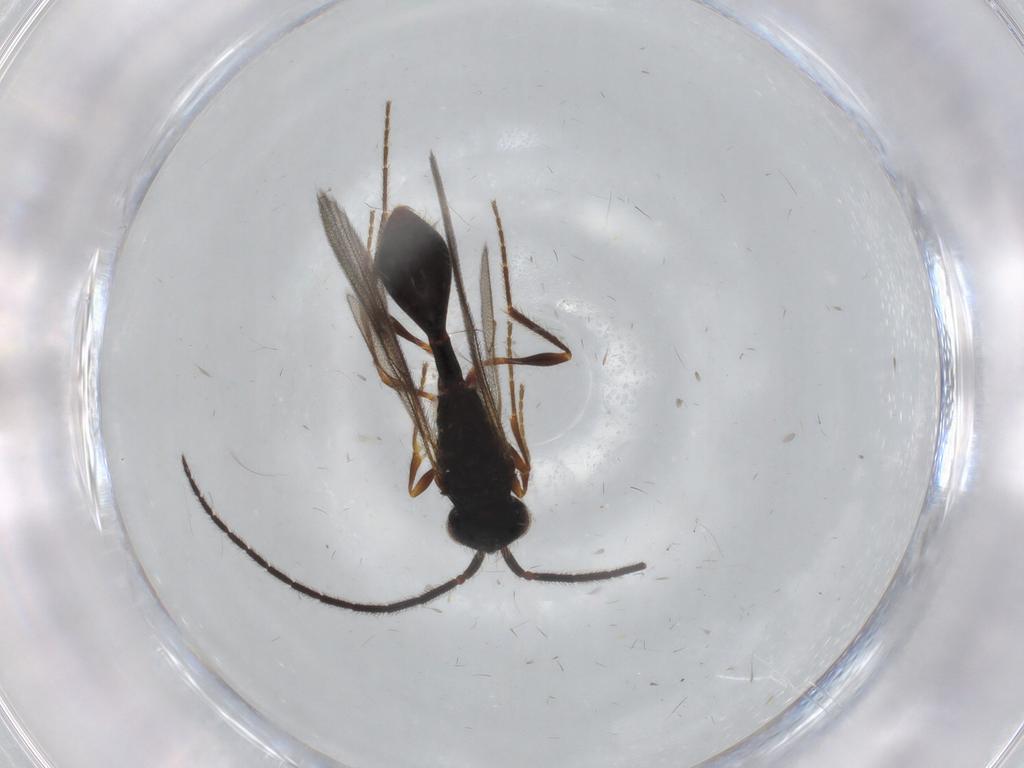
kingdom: Animalia
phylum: Arthropoda
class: Insecta
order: Hymenoptera
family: Diapriidae
